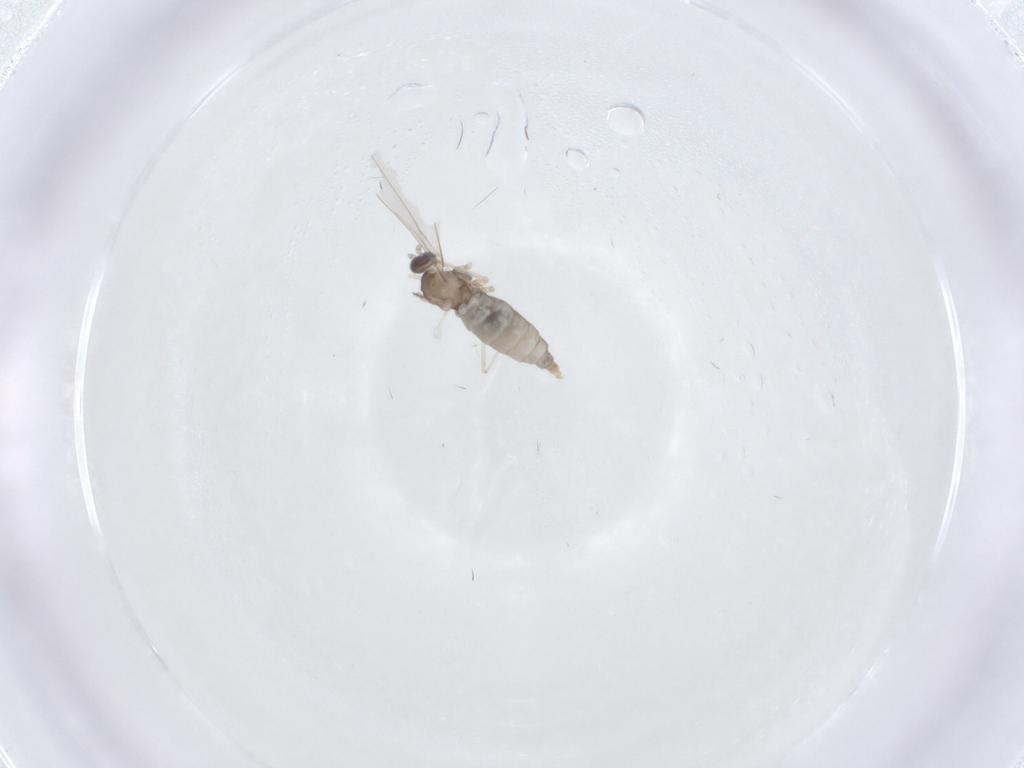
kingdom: Animalia
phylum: Arthropoda
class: Insecta
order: Diptera
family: Cecidomyiidae
